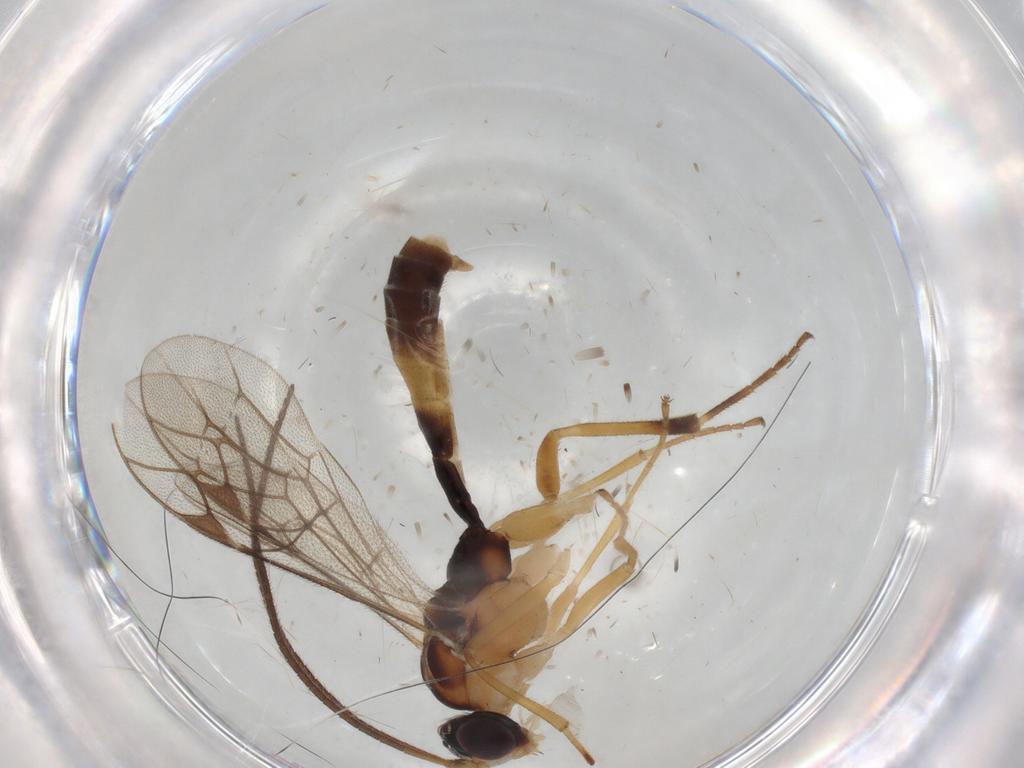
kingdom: Animalia
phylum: Arthropoda
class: Insecta
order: Hymenoptera
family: Ichneumonidae
